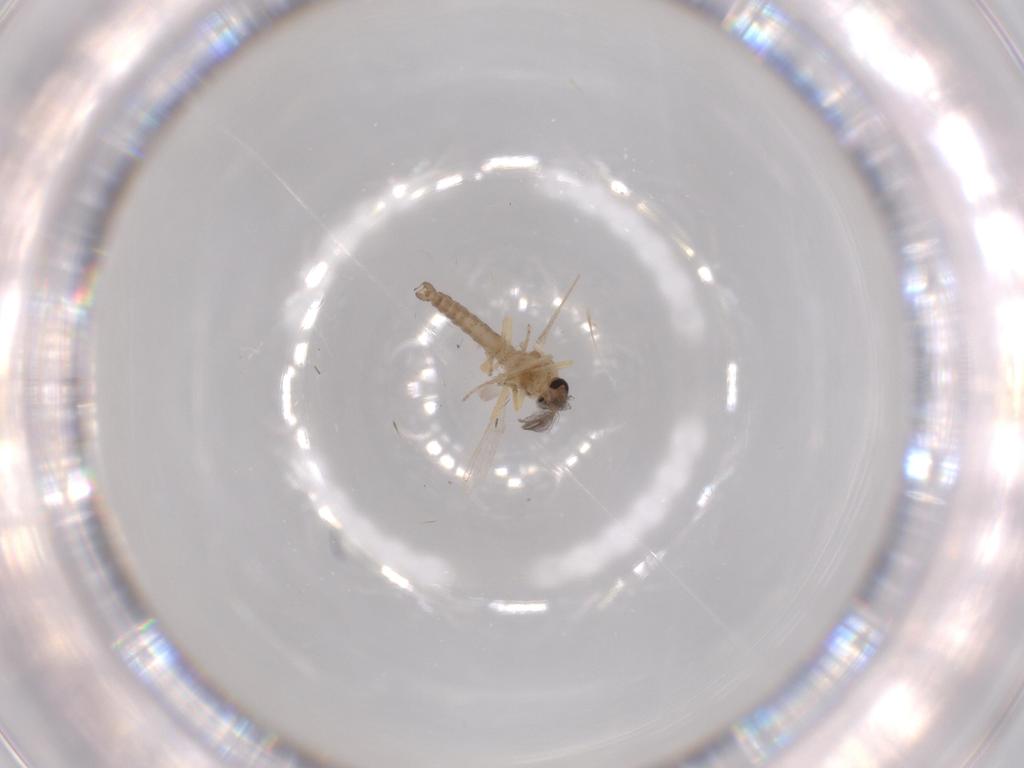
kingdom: Animalia
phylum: Arthropoda
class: Insecta
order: Diptera
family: Ceratopogonidae
